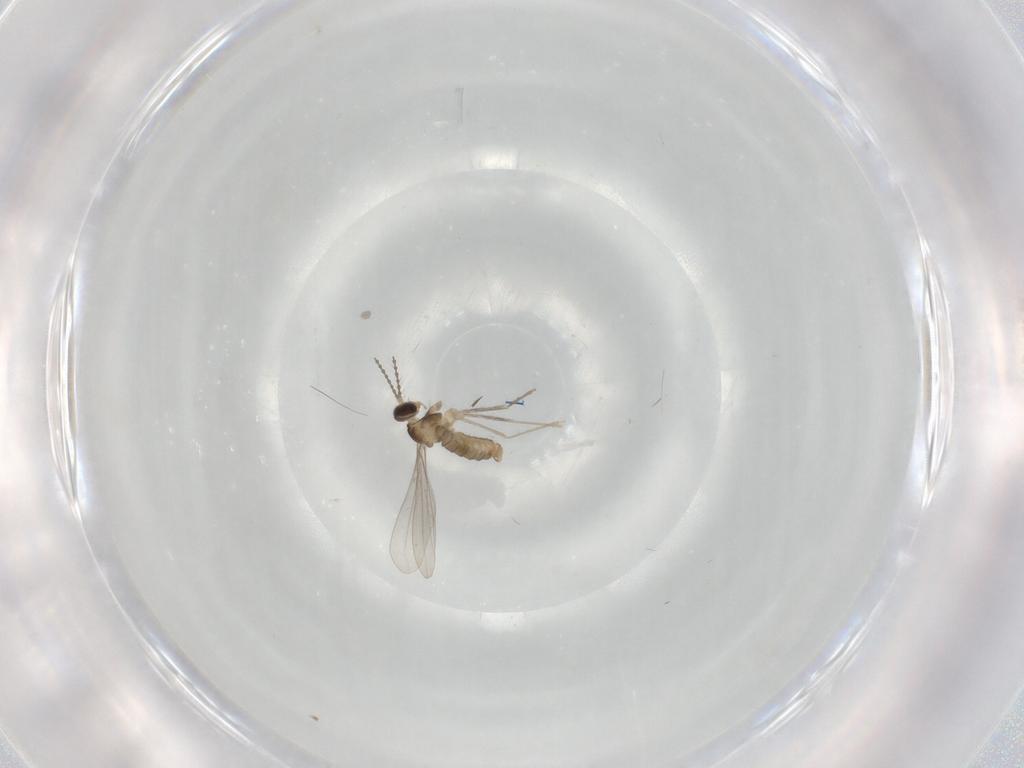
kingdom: Animalia
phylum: Arthropoda
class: Insecta
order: Diptera
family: Cecidomyiidae
